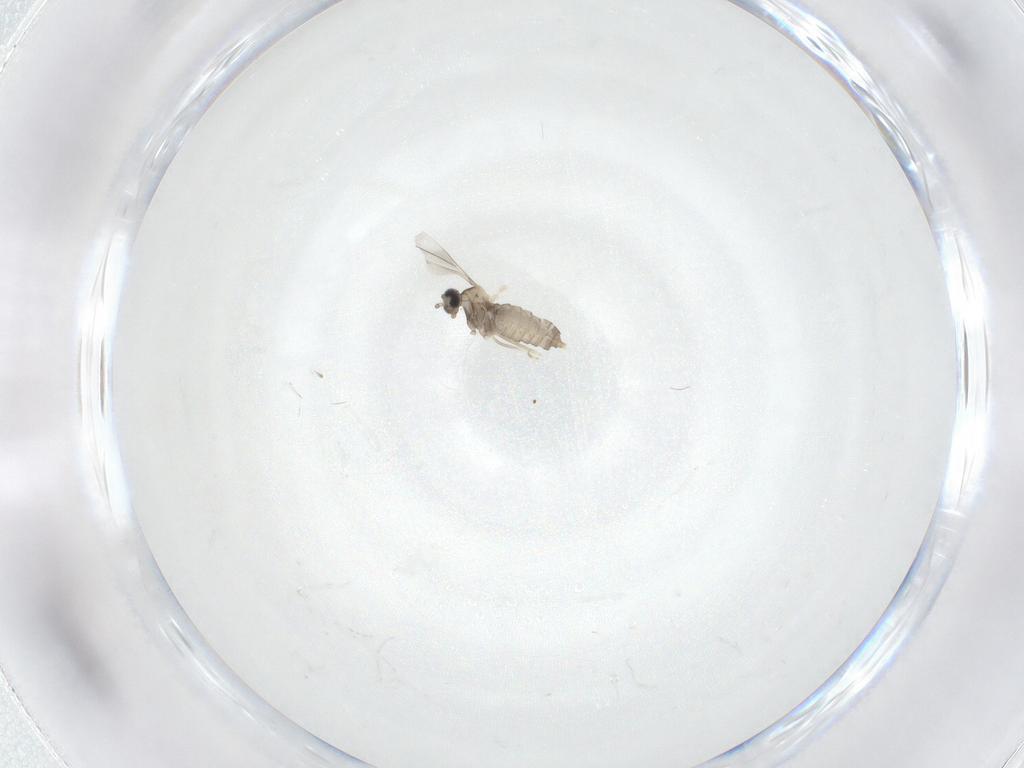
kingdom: Animalia
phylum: Arthropoda
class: Insecta
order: Diptera
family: Cecidomyiidae
